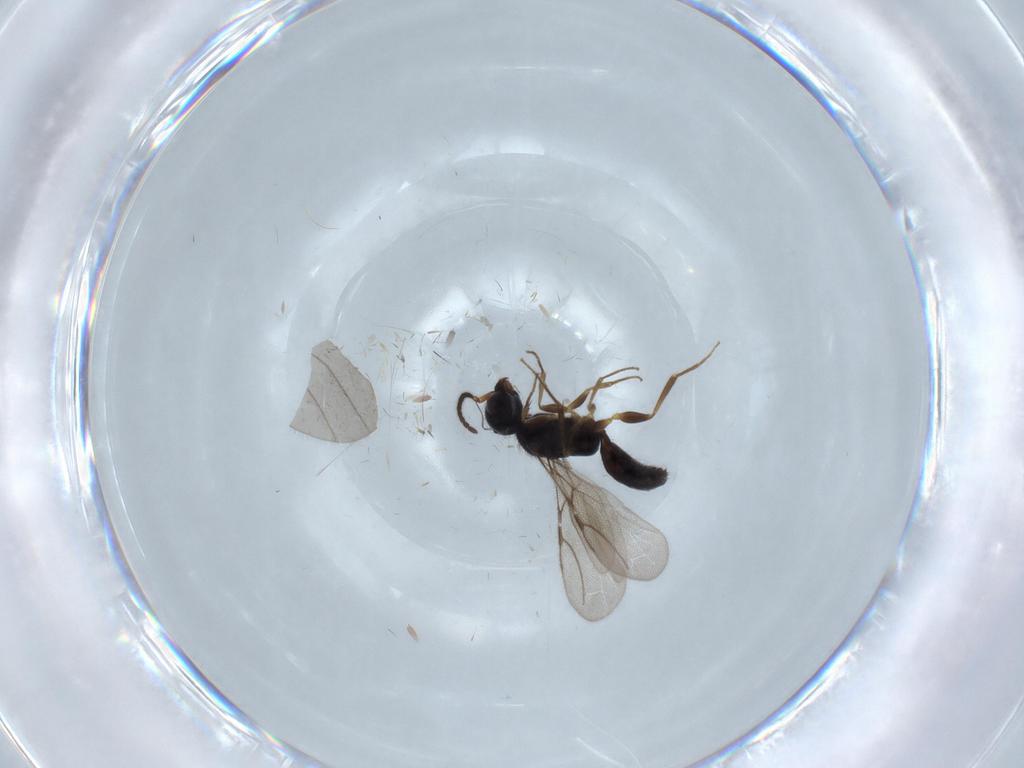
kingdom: Animalia
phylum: Arthropoda
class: Insecta
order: Hymenoptera
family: Bethylidae
